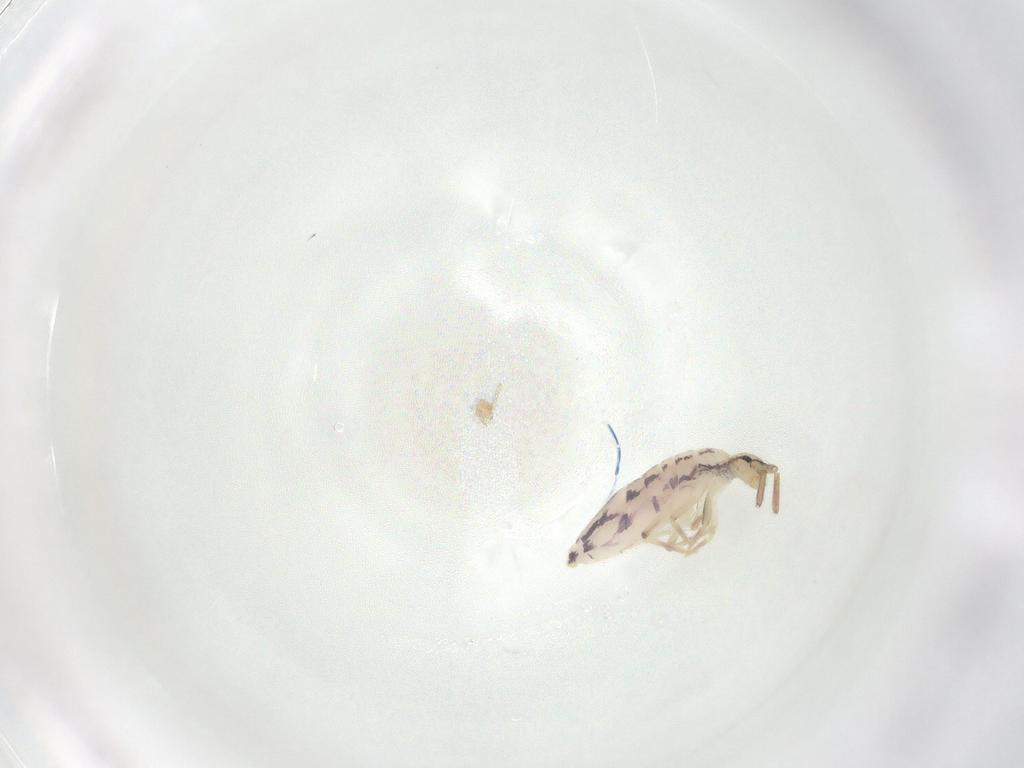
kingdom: Animalia
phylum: Arthropoda
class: Collembola
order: Entomobryomorpha
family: Entomobryidae
